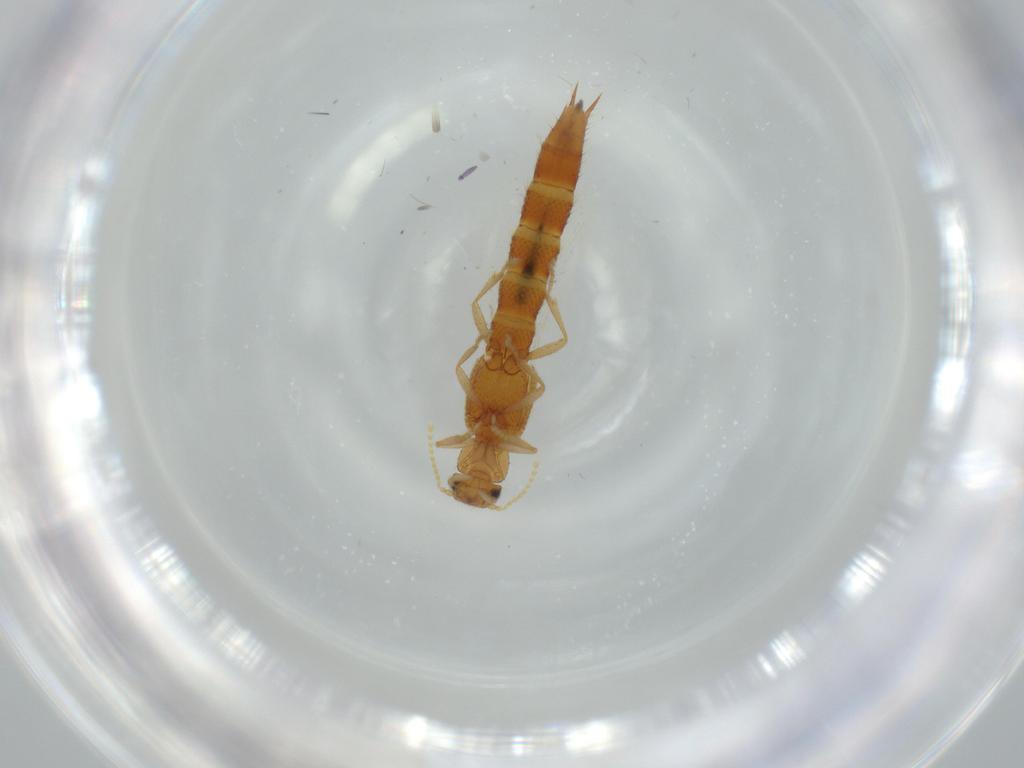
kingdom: Animalia
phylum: Arthropoda
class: Insecta
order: Coleoptera
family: Staphylinidae
